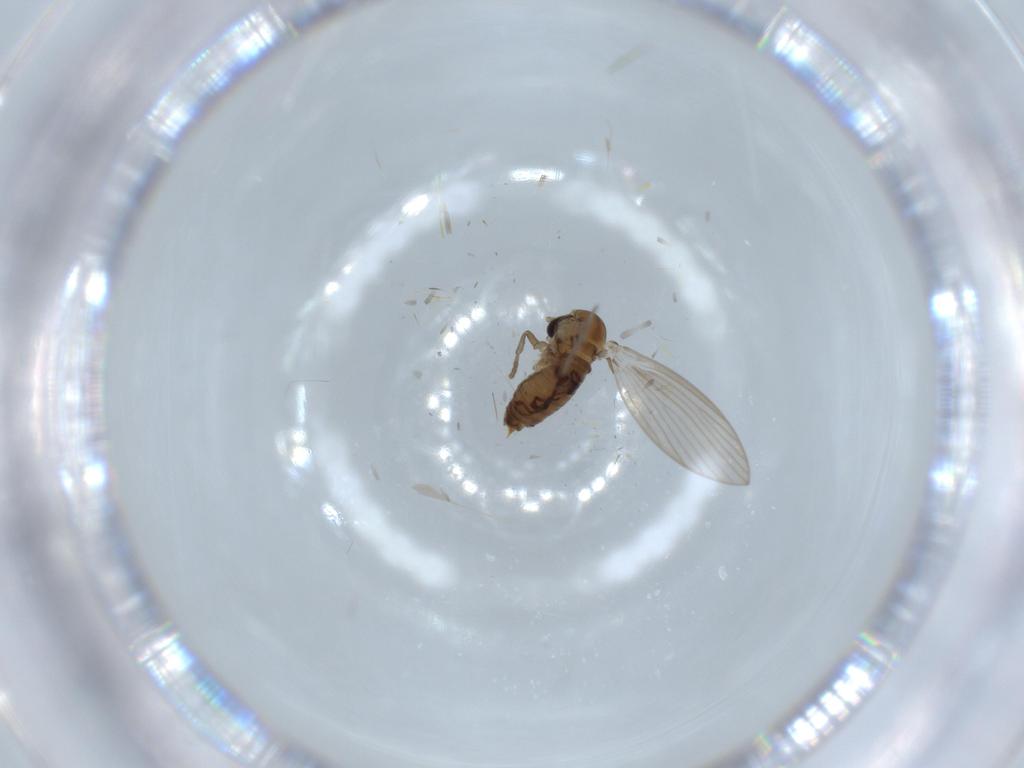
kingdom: Animalia
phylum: Arthropoda
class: Insecta
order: Diptera
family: Psychodidae
